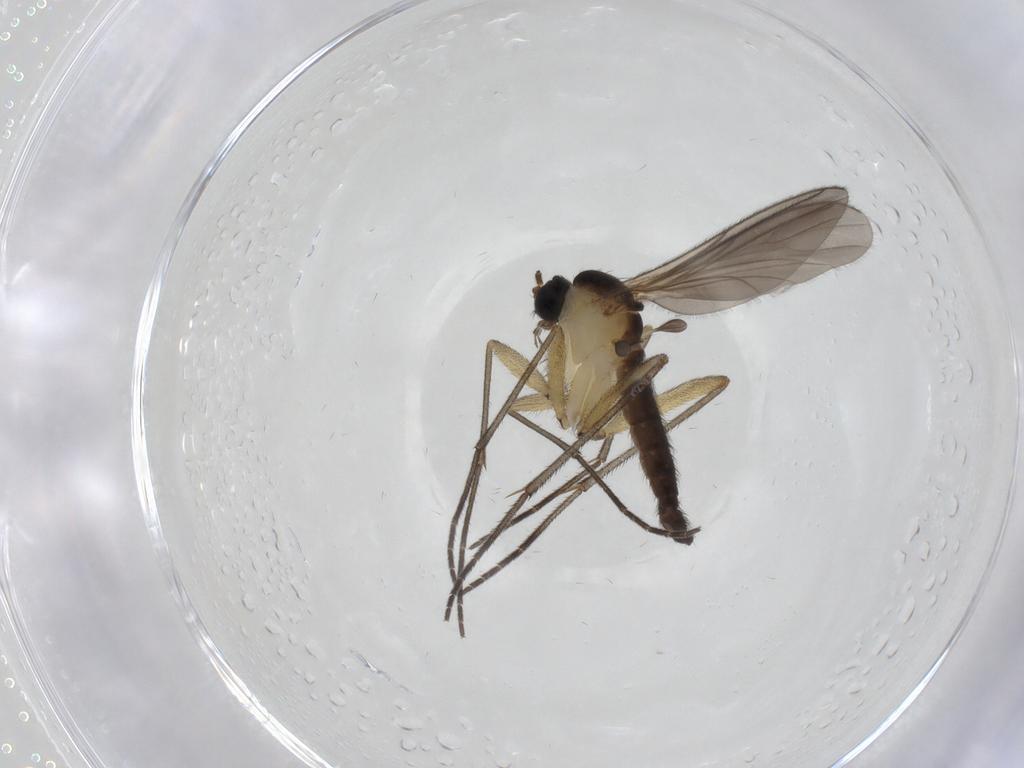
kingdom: Animalia
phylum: Arthropoda
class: Insecta
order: Diptera
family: Sciaridae
